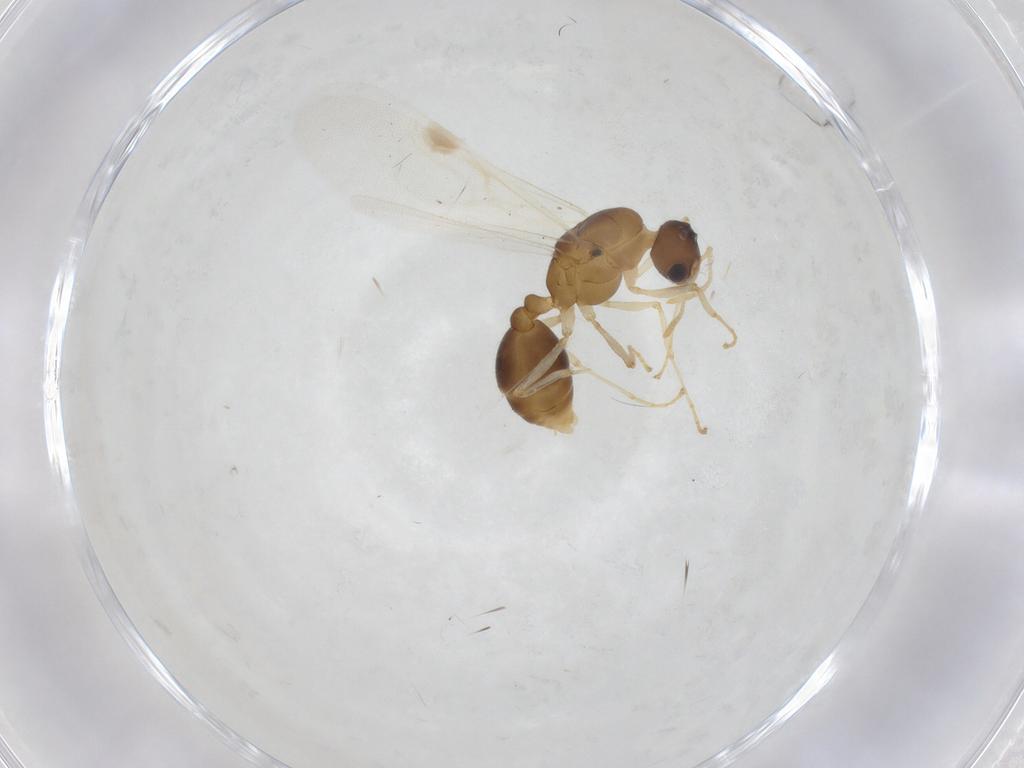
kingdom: Animalia
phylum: Arthropoda
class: Insecta
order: Hymenoptera
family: Formicidae
